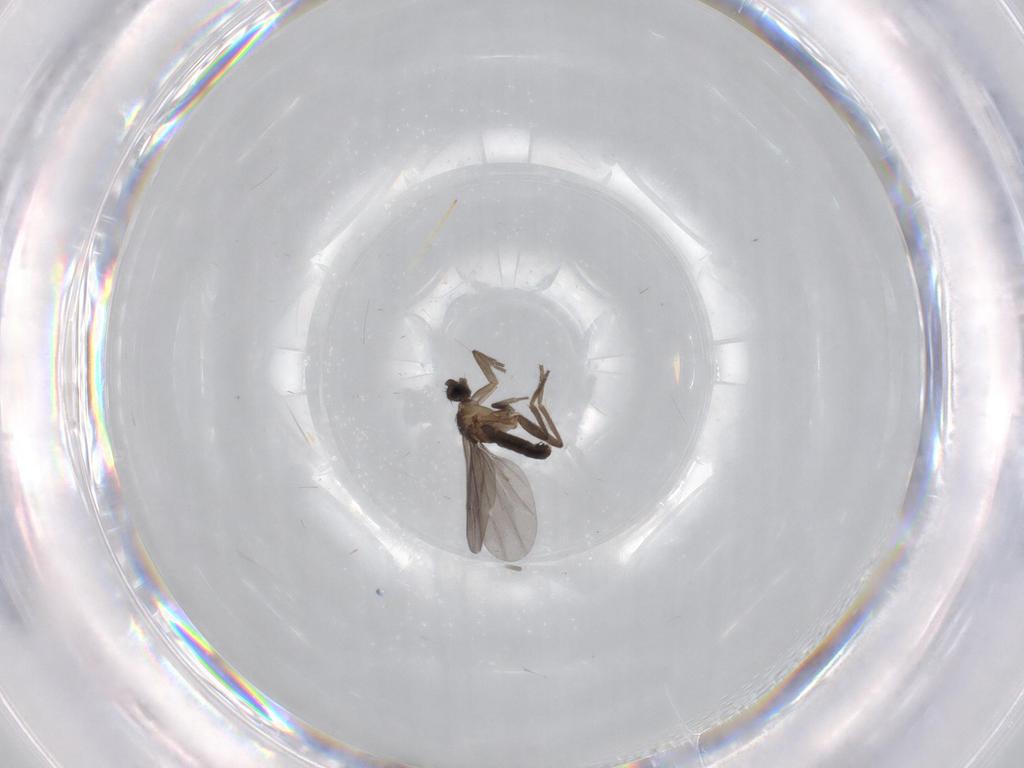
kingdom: Animalia
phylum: Arthropoda
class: Insecta
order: Diptera
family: Phoridae
